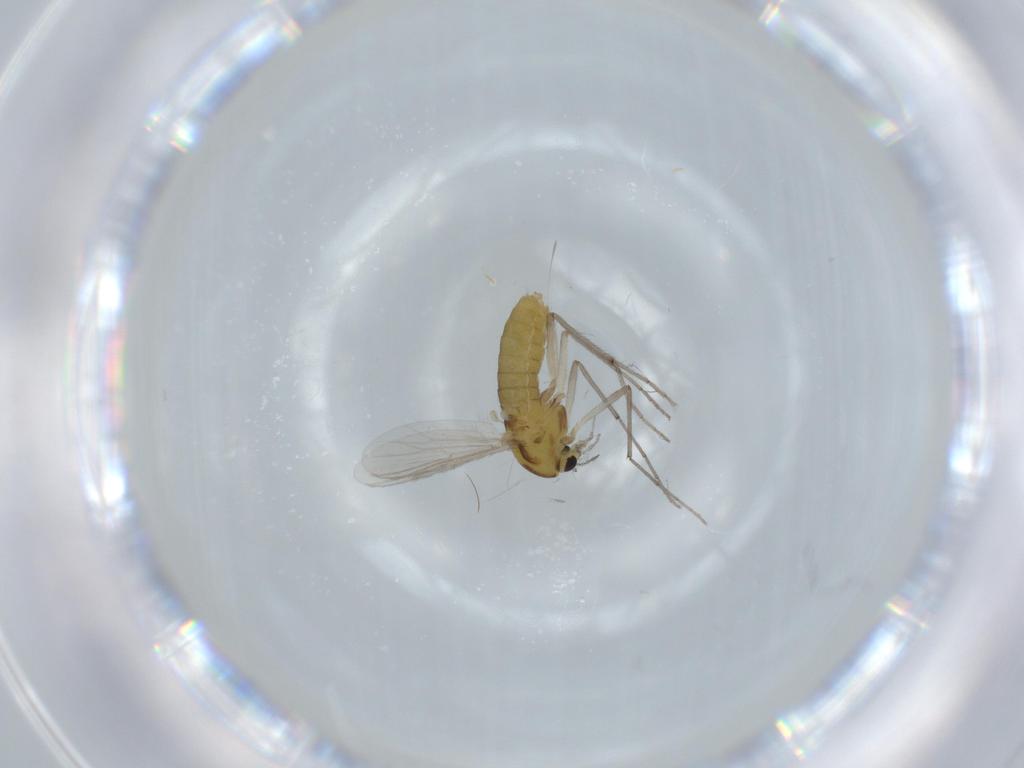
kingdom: Animalia
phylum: Arthropoda
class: Insecta
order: Diptera
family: Chironomidae
